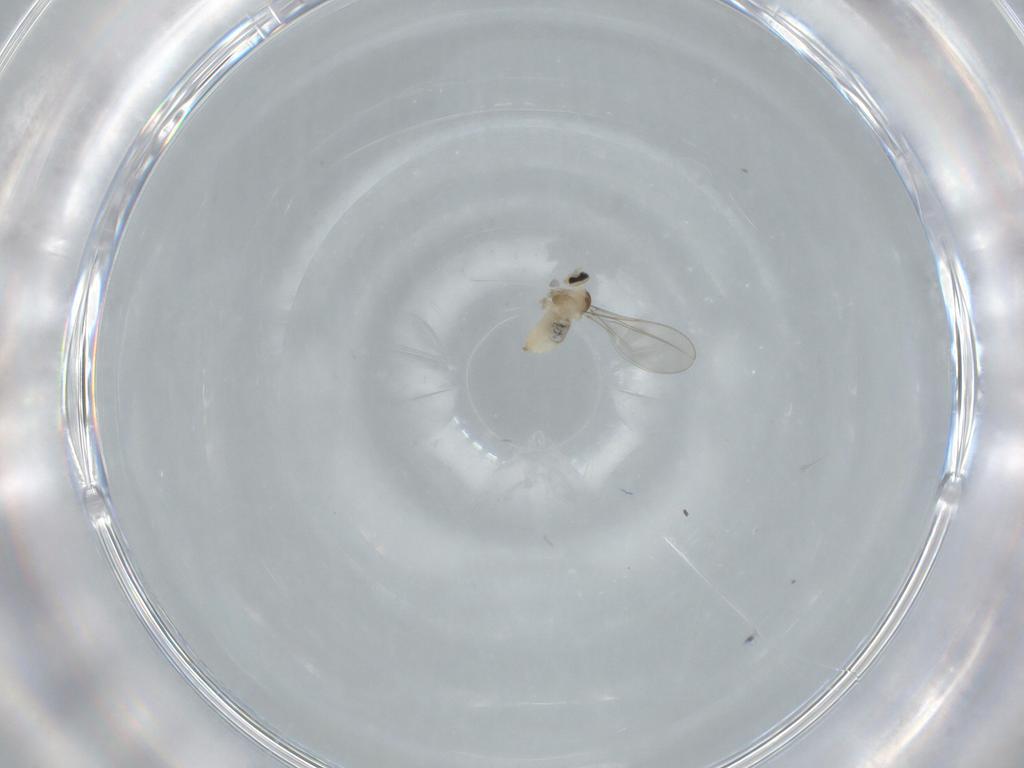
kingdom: Animalia
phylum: Arthropoda
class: Insecta
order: Diptera
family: Cecidomyiidae
